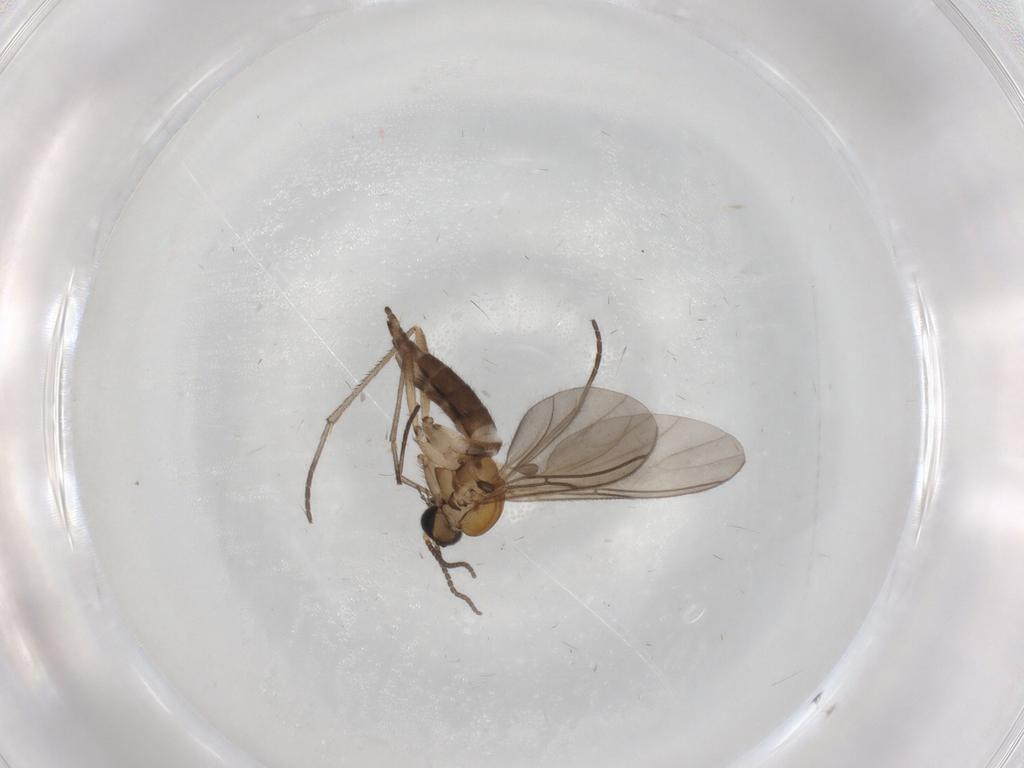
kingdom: Animalia
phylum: Arthropoda
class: Insecta
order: Diptera
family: Sciaridae
